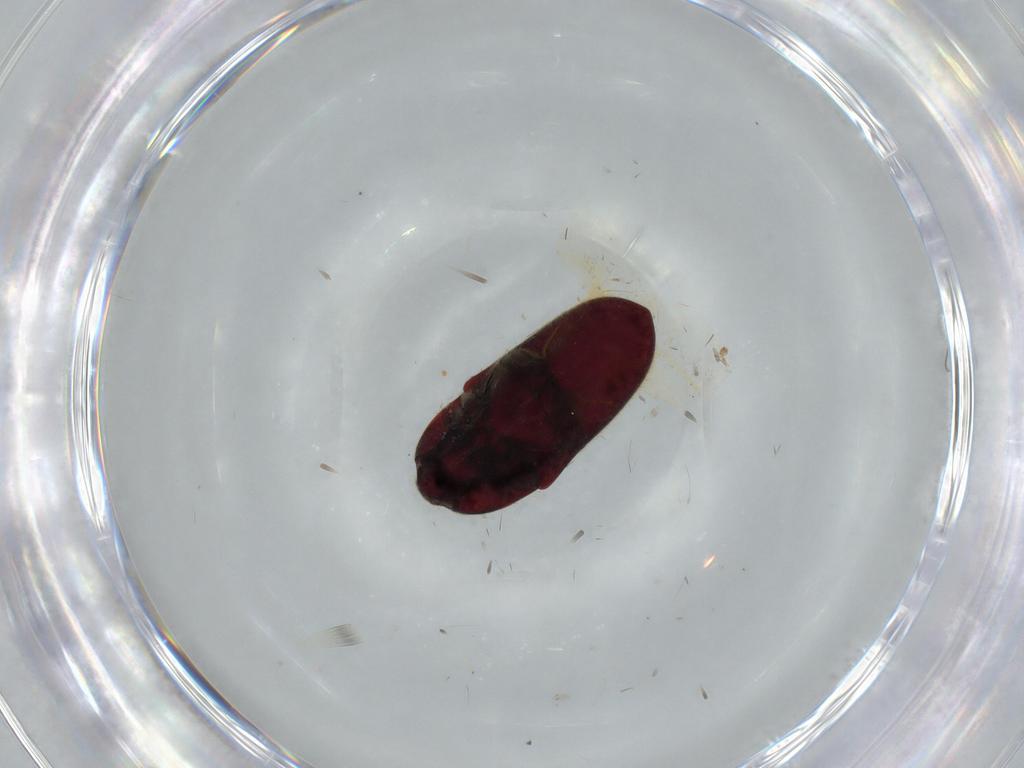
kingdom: Animalia
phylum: Arthropoda
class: Insecta
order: Coleoptera
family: Throscidae
